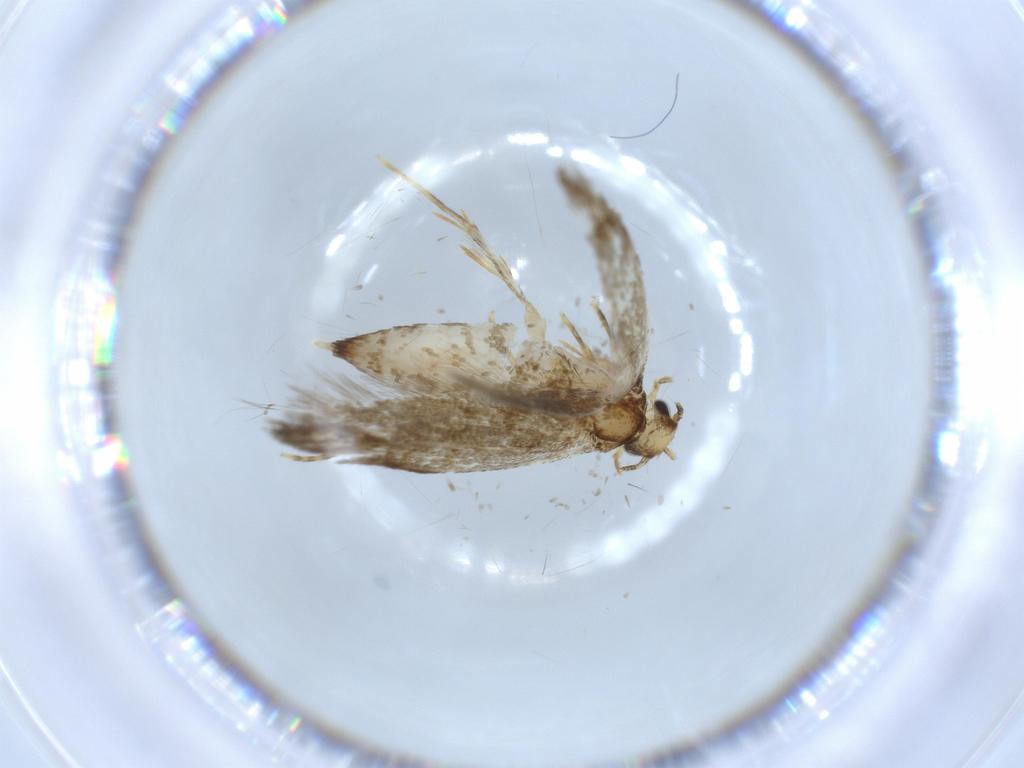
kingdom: Animalia
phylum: Arthropoda
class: Insecta
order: Lepidoptera
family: Tineidae
